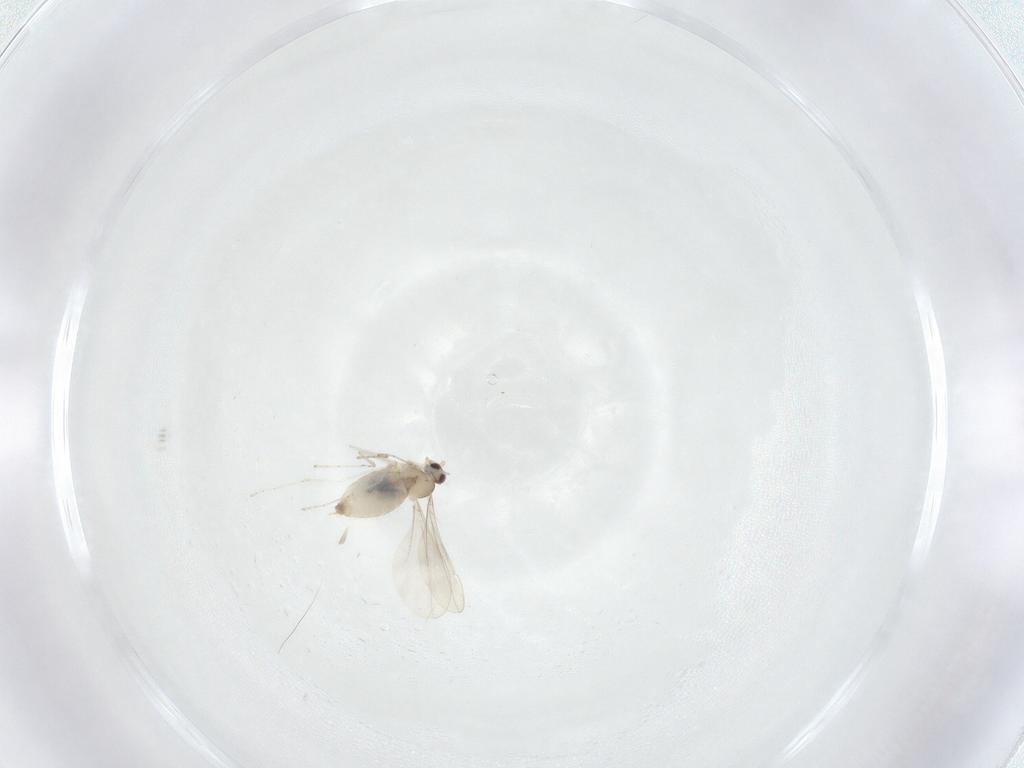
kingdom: Animalia
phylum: Arthropoda
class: Insecta
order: Diptera
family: Cecidomyiidae
